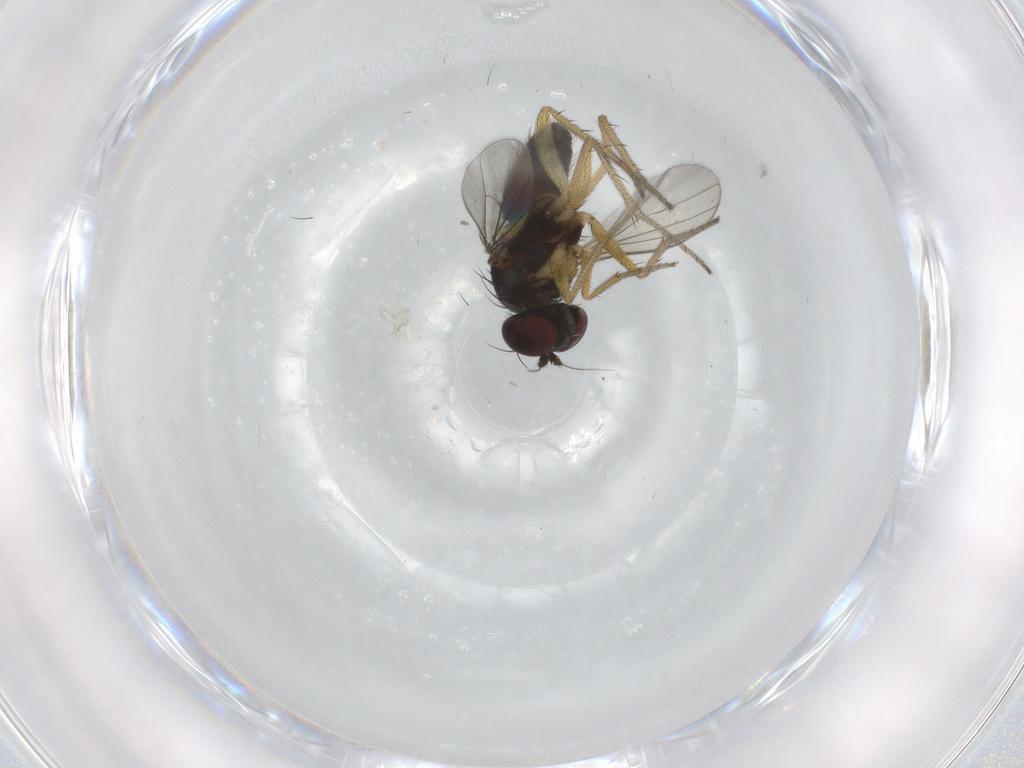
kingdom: Animalia
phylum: Arthropoda
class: Insecta
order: Diptera
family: Dolichopodidae
